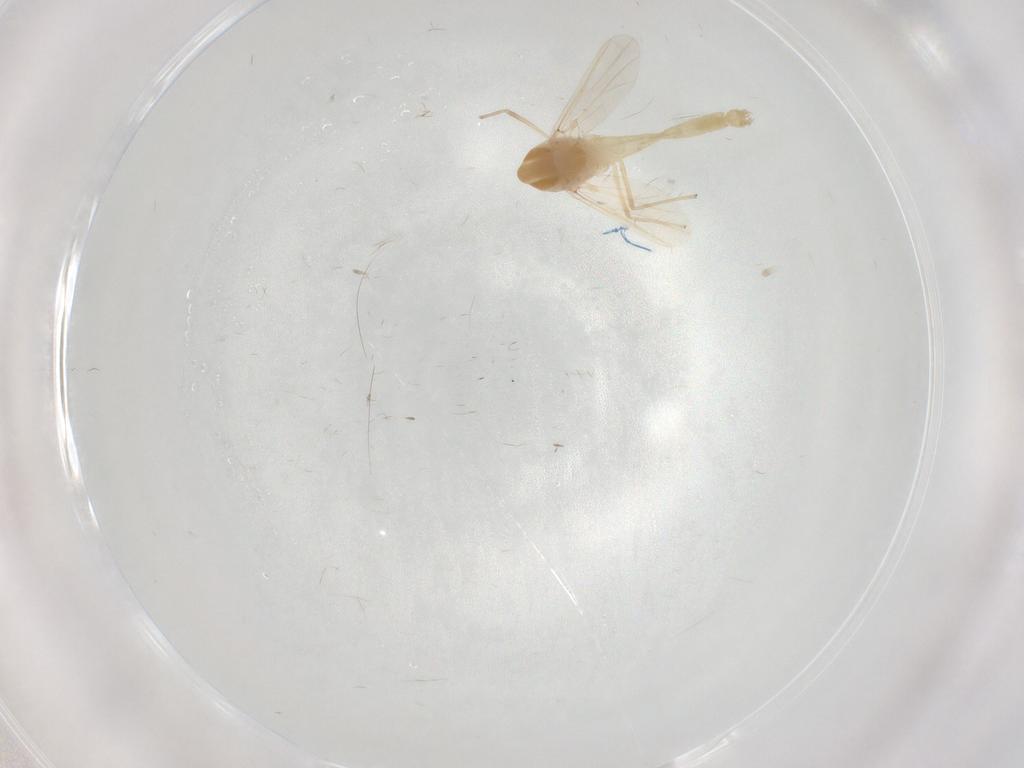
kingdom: Animalia
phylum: Arthropoda
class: Insecta
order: Diptera
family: Chironomidae
